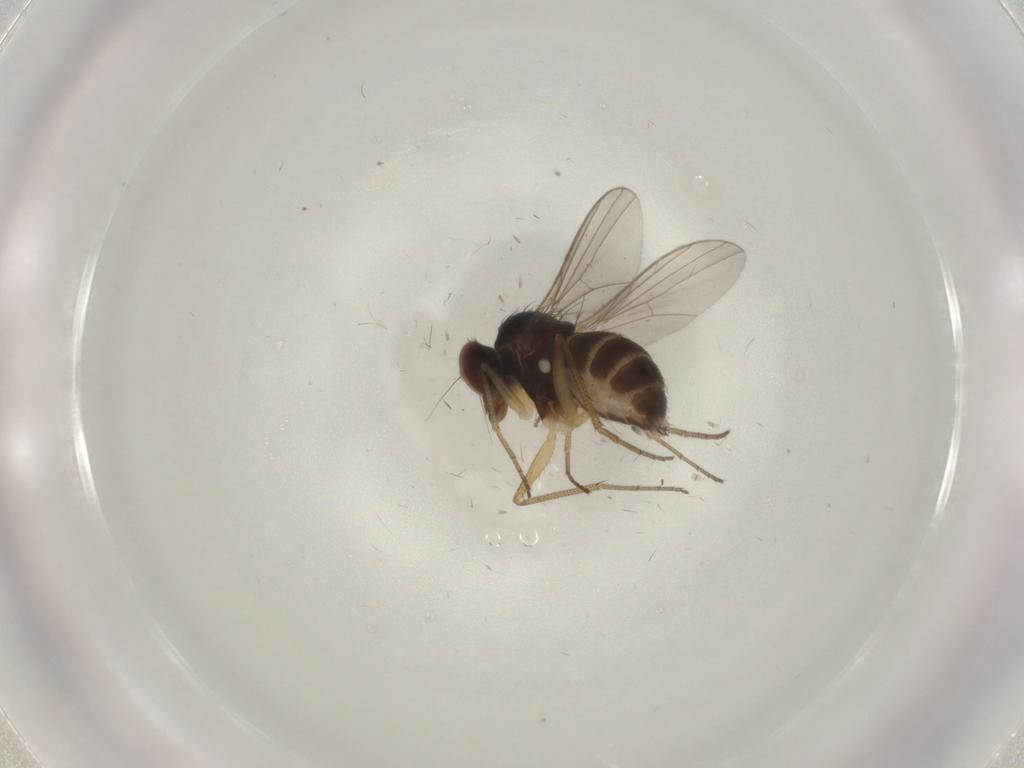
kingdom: Animalia
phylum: Arthropoda
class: Insecta
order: Diptera
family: Dolichopodidae
